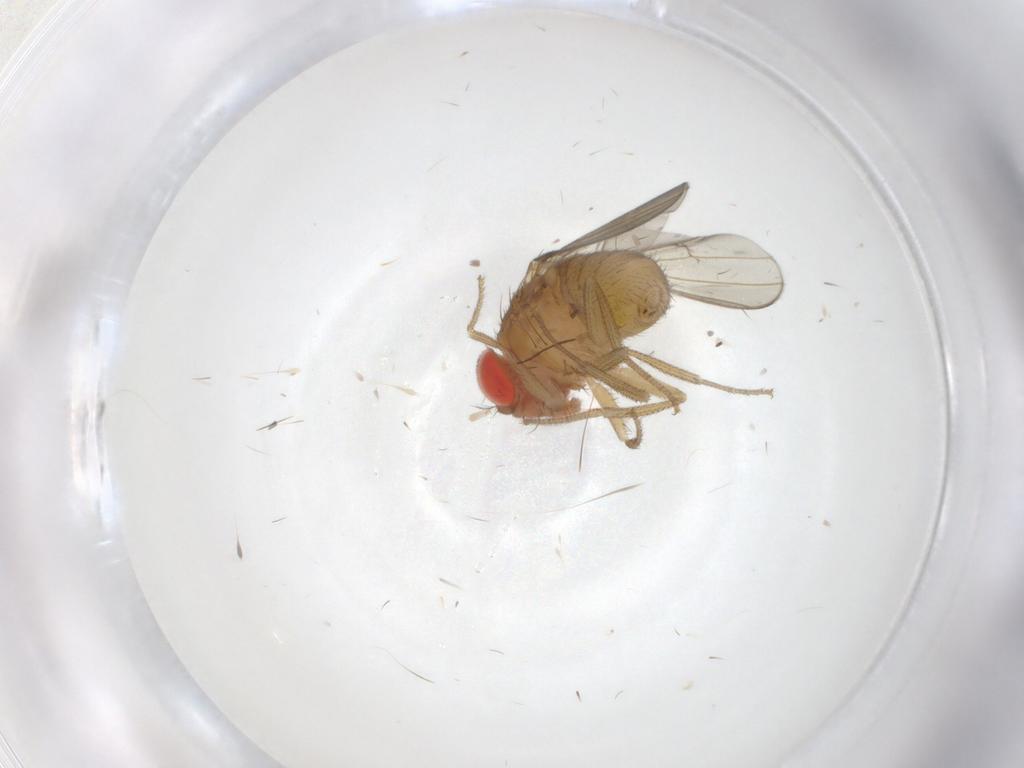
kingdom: Animalia
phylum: Arthropoda
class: Insecta
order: Diptera
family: Drosophilidae
